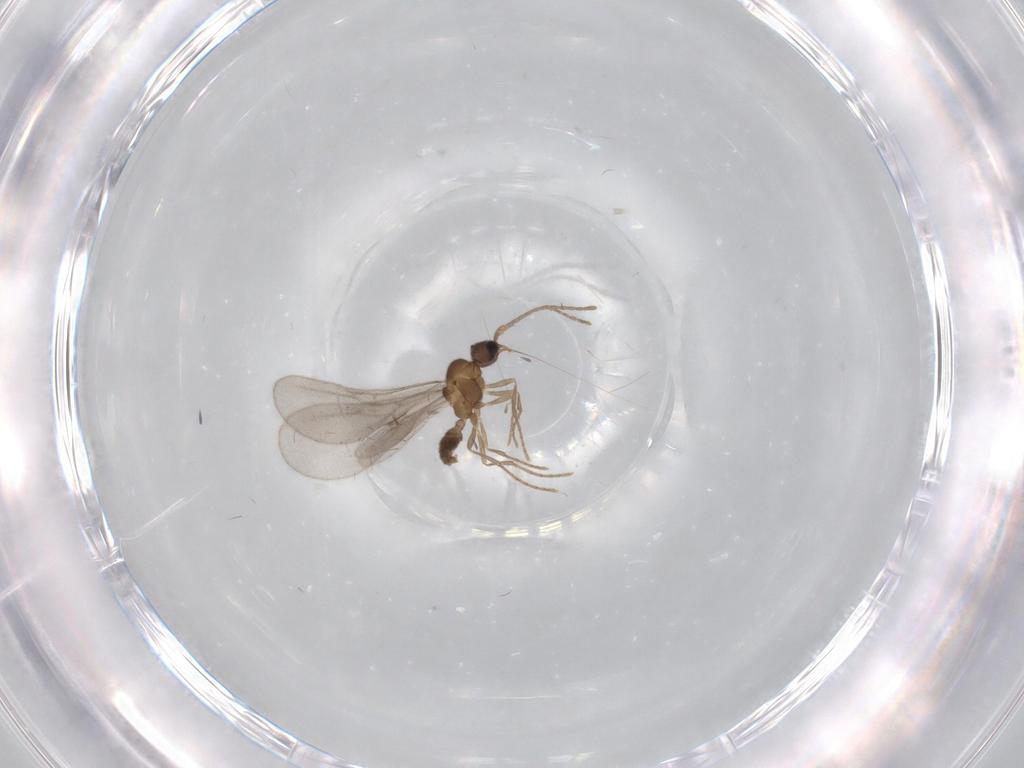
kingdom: Animalia
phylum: Arthropoda
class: Insecta
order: Hymenoptera
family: Formicidae
